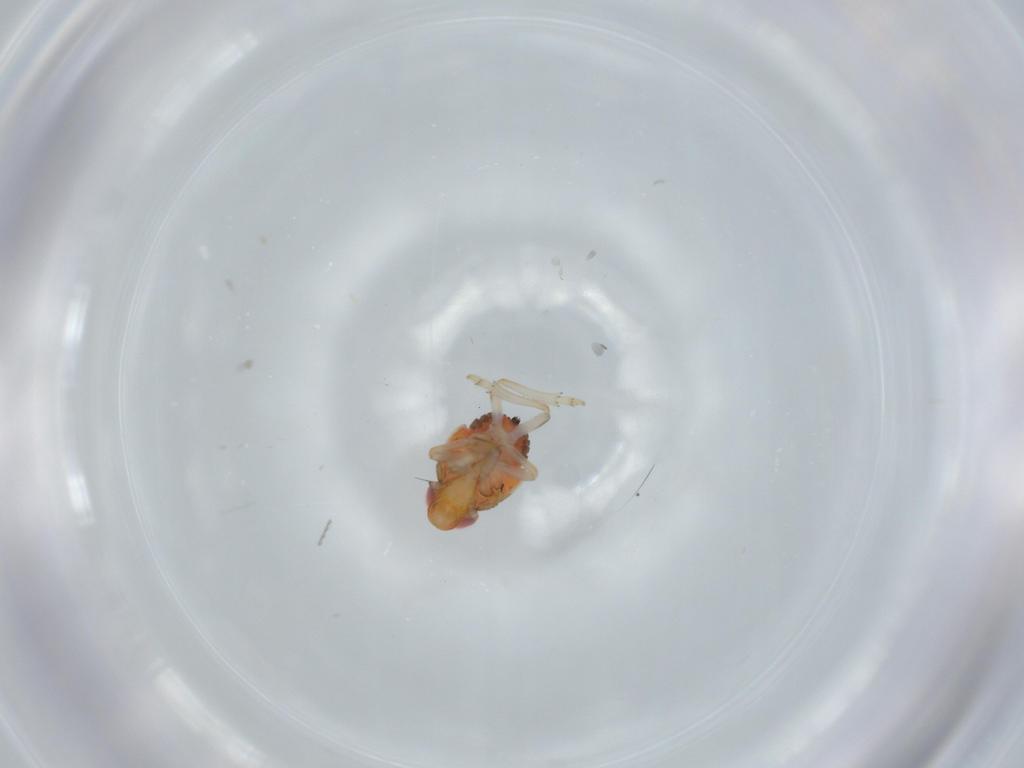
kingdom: Animalia
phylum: Arthropoda
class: Insecta
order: Hemiptera
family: Issidae
